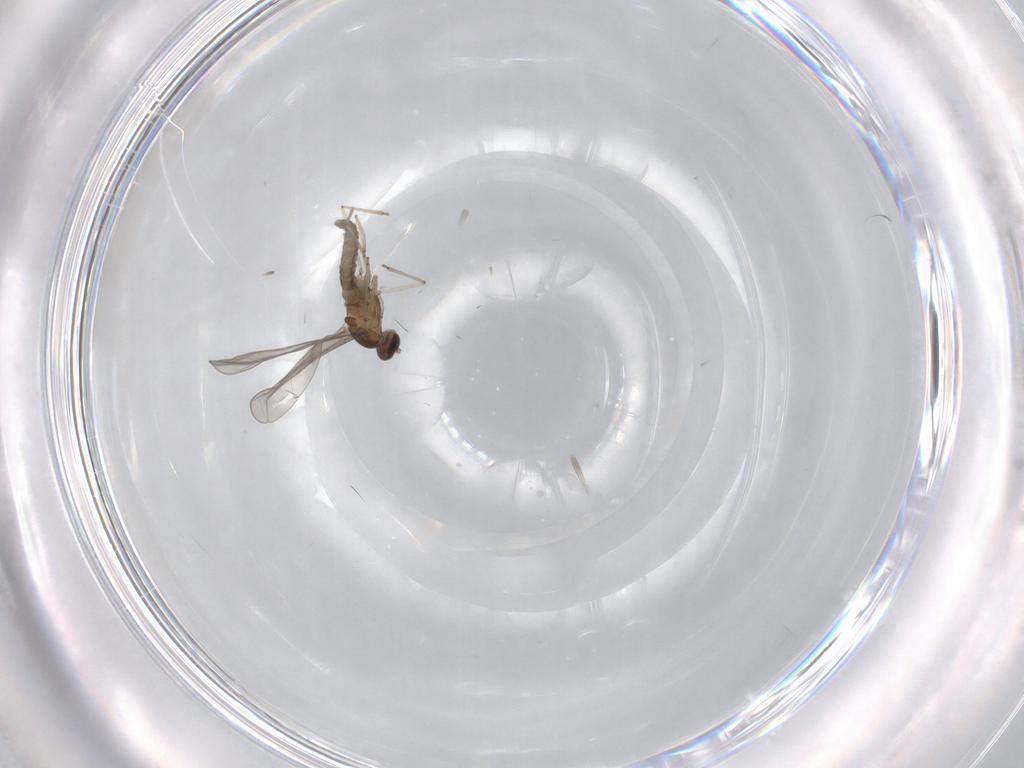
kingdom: Animalia
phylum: Arthropoda
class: Insecta
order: Diptera
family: Cecidomyiidae
